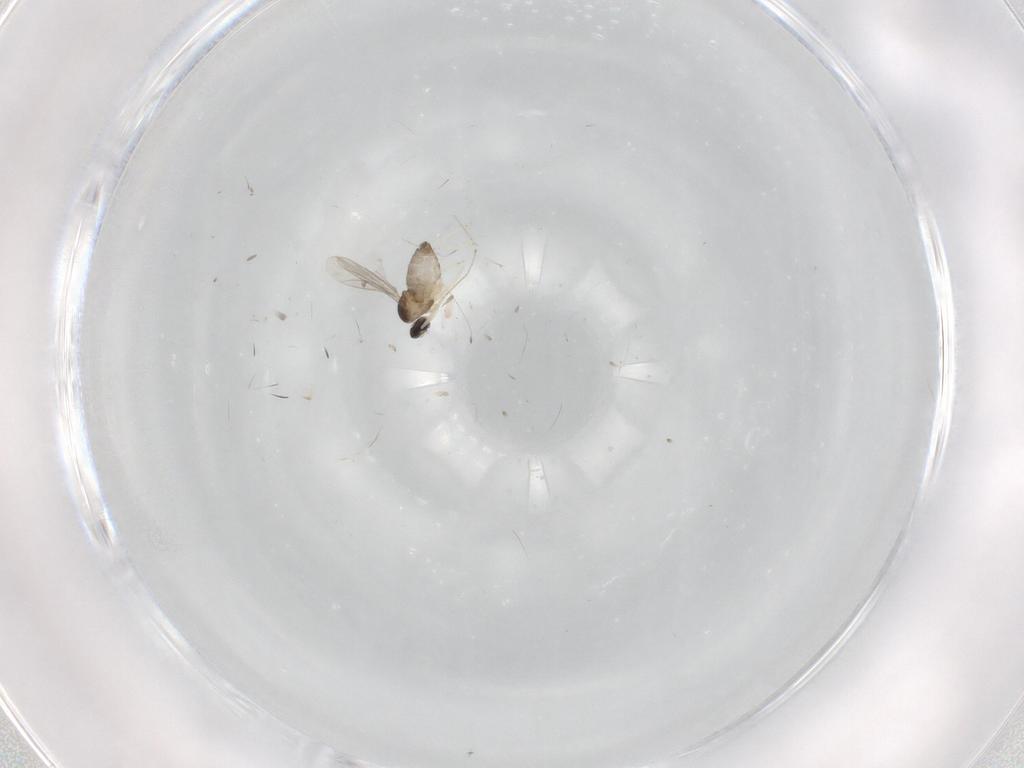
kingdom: Animalia
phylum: Arthropoda
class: Insecta
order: Diptera
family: Cecidomyiidae
